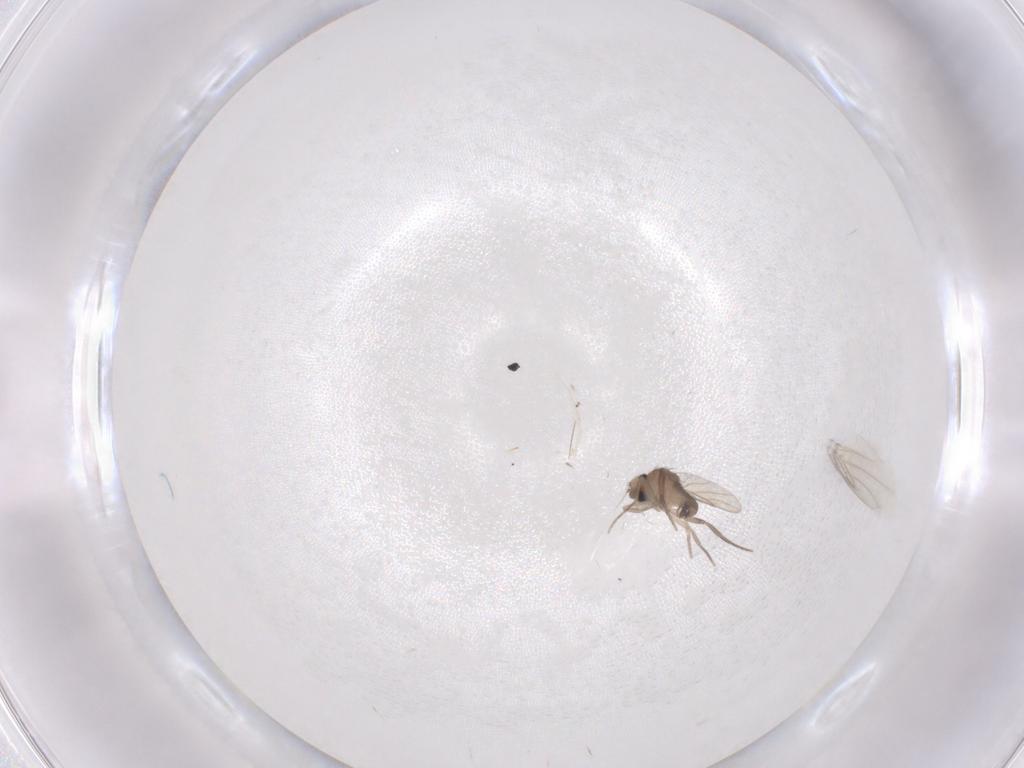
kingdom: Animalia
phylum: Arthropoda
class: Insecta
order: Diptera
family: Phoridae
